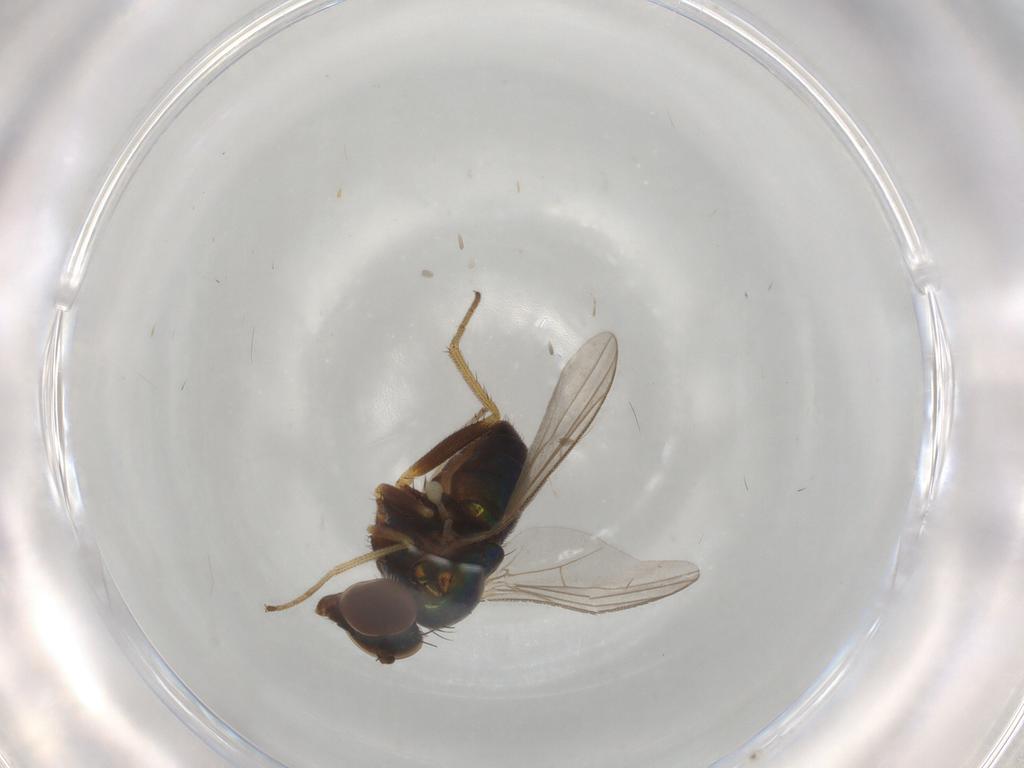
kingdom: Animalia
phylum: Arthropoda
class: Insecta
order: Diptera
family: Dolichopodidae
